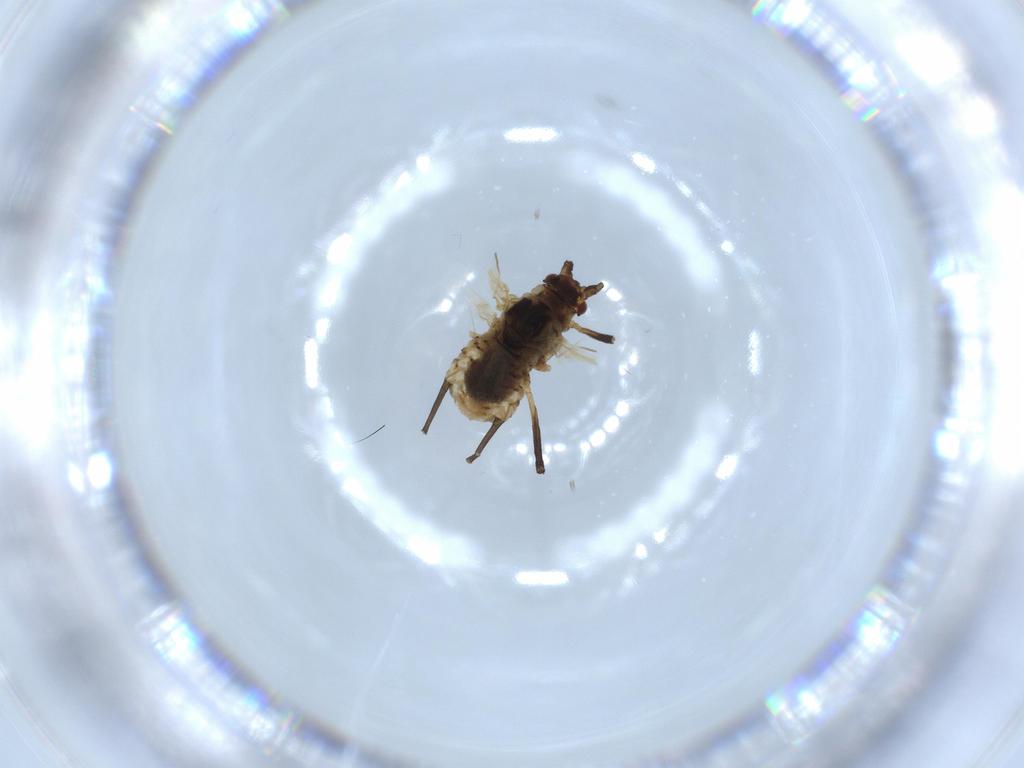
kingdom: Animalia
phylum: Arthropoda
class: Insecta
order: Hemiptera
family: Aphididae
